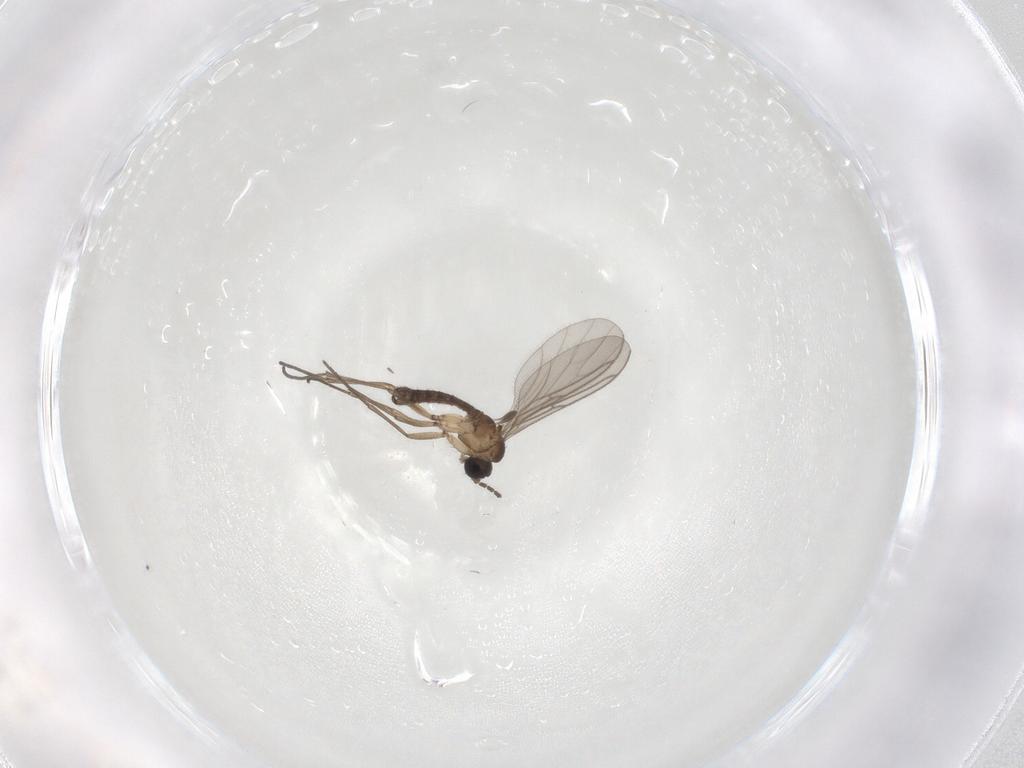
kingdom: Animalia
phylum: Arthropoda
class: Insecta
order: Diptera
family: Sciaridae
